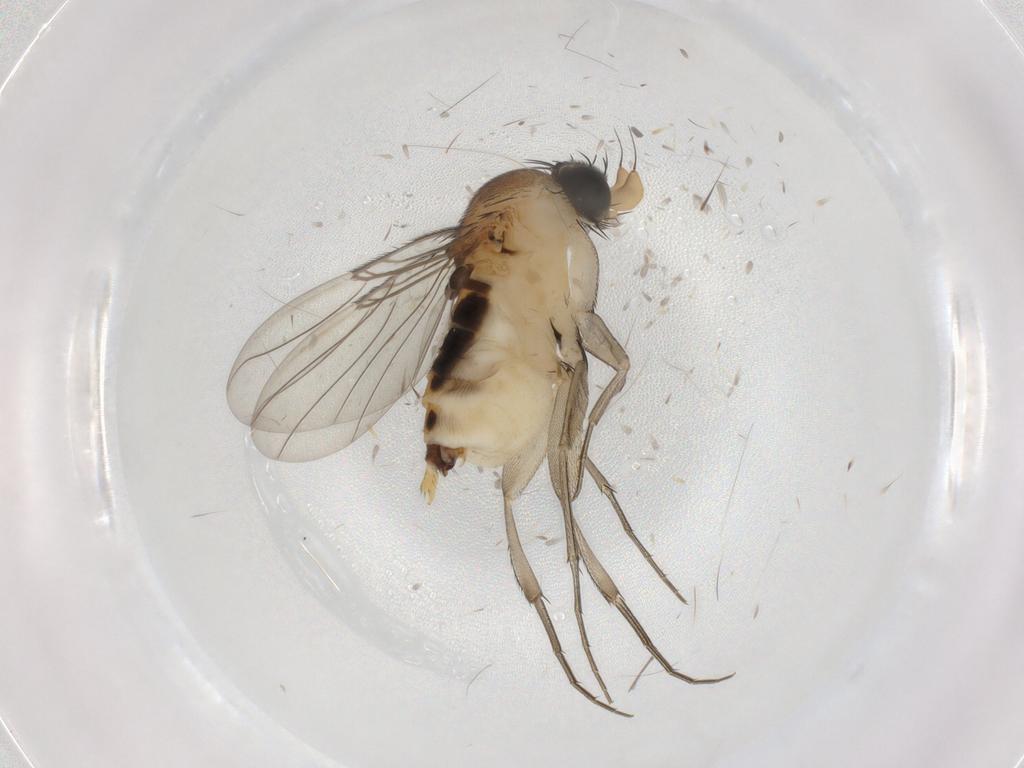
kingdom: Animalia
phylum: Arthropoda
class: Insecta
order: Diptera
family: Phoridae
